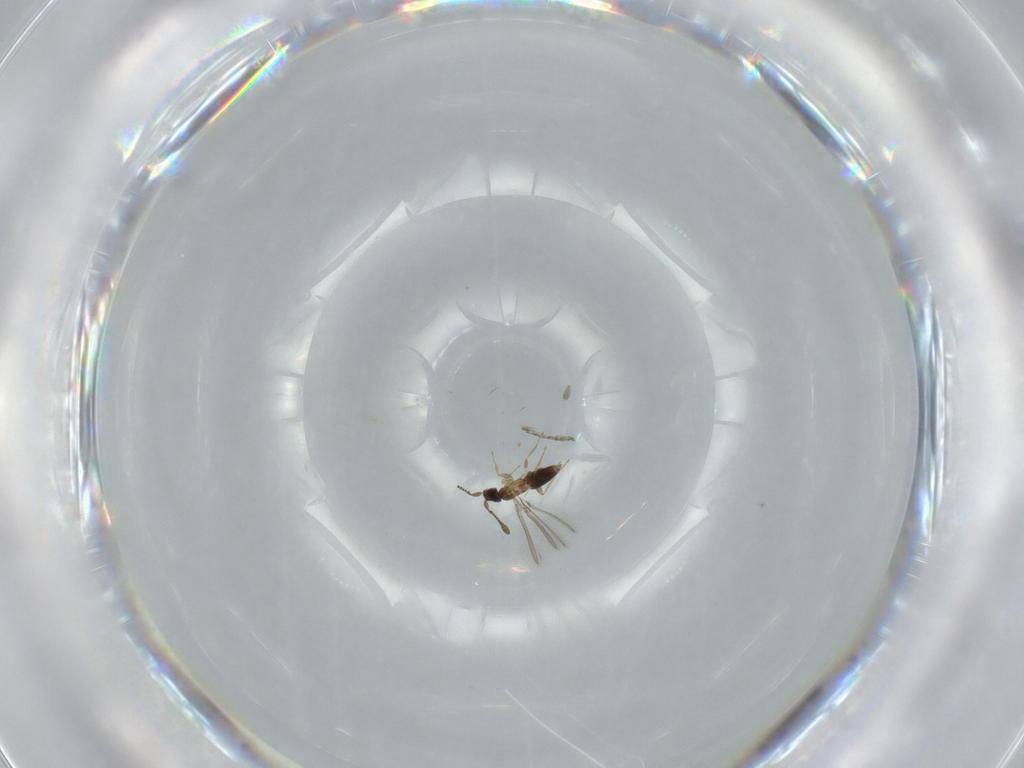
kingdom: Animalia
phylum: Arthropoda
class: Insecta
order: Hymenoptera
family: Mymaridae
